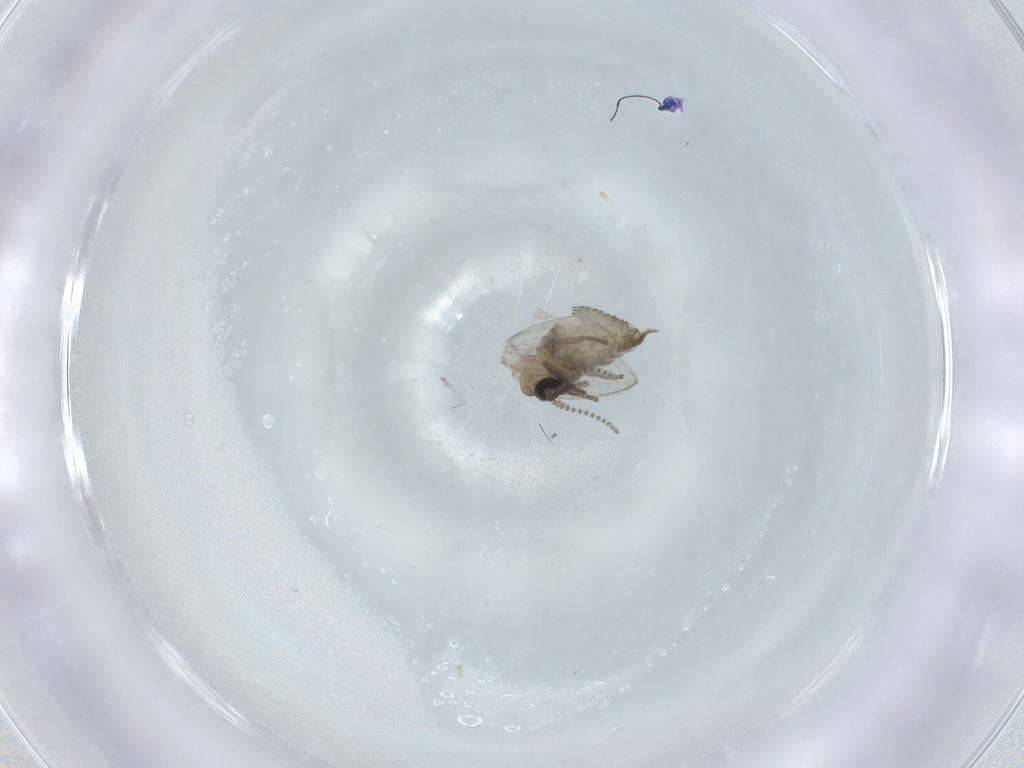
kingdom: Animalia
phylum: Arthropoda
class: Insecta
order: Diptera
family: Psychodidae
